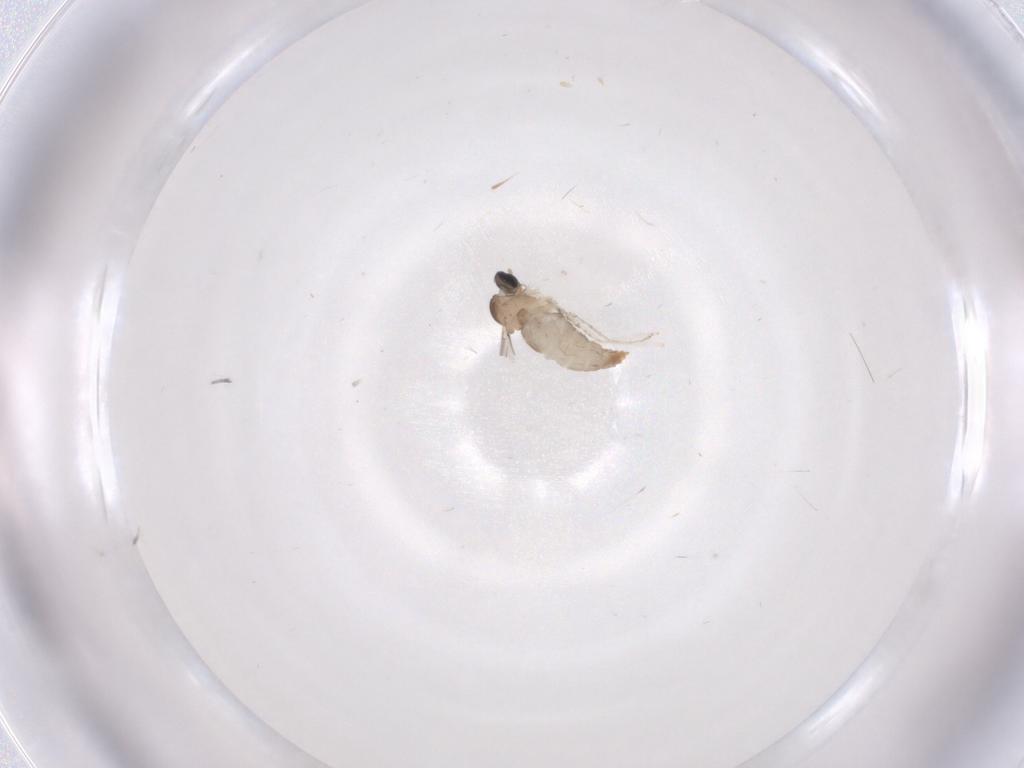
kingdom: Animalia
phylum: Arthropoda
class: Insecta
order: Diptera
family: Cecidomyiidae
